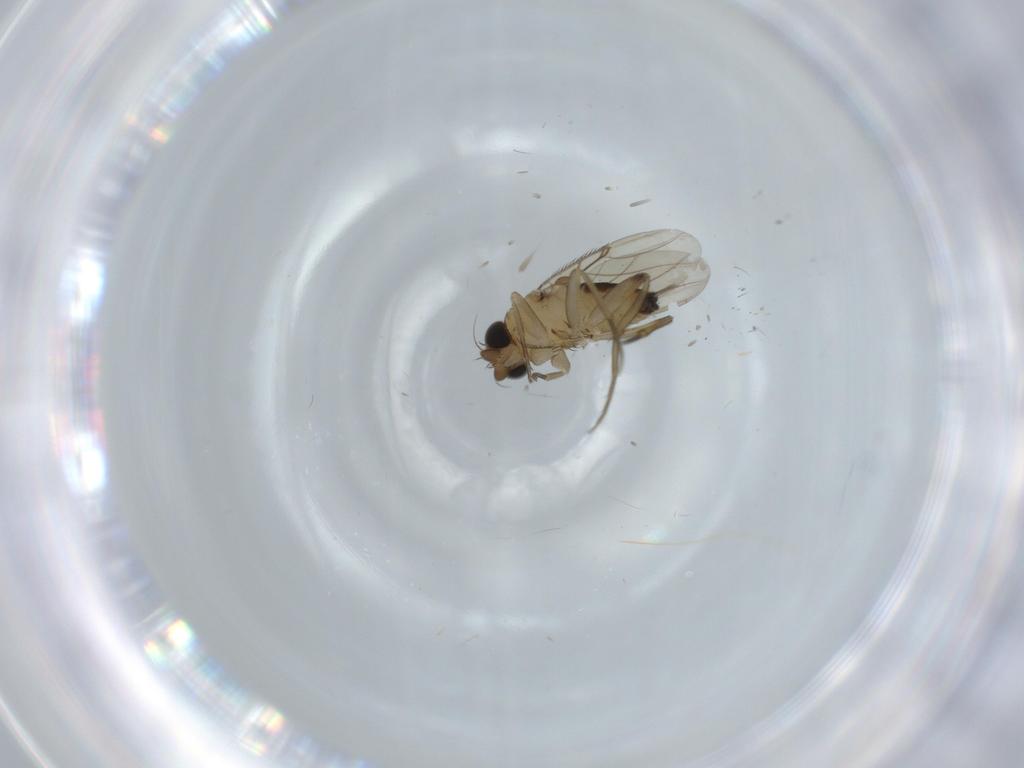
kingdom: Animalia
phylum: Arthropoda
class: Insecta
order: Diptera
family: Phoridae
